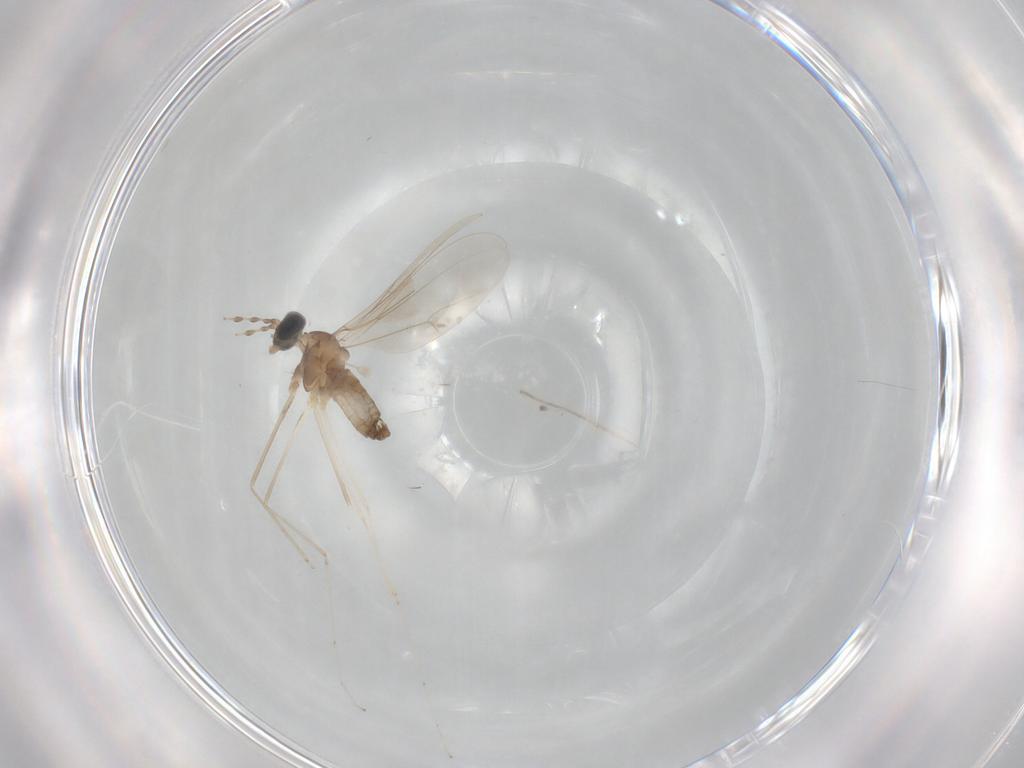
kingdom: Animalia
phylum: Arthropoda
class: Insecta
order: Diptera
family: Cecidomyiidae
